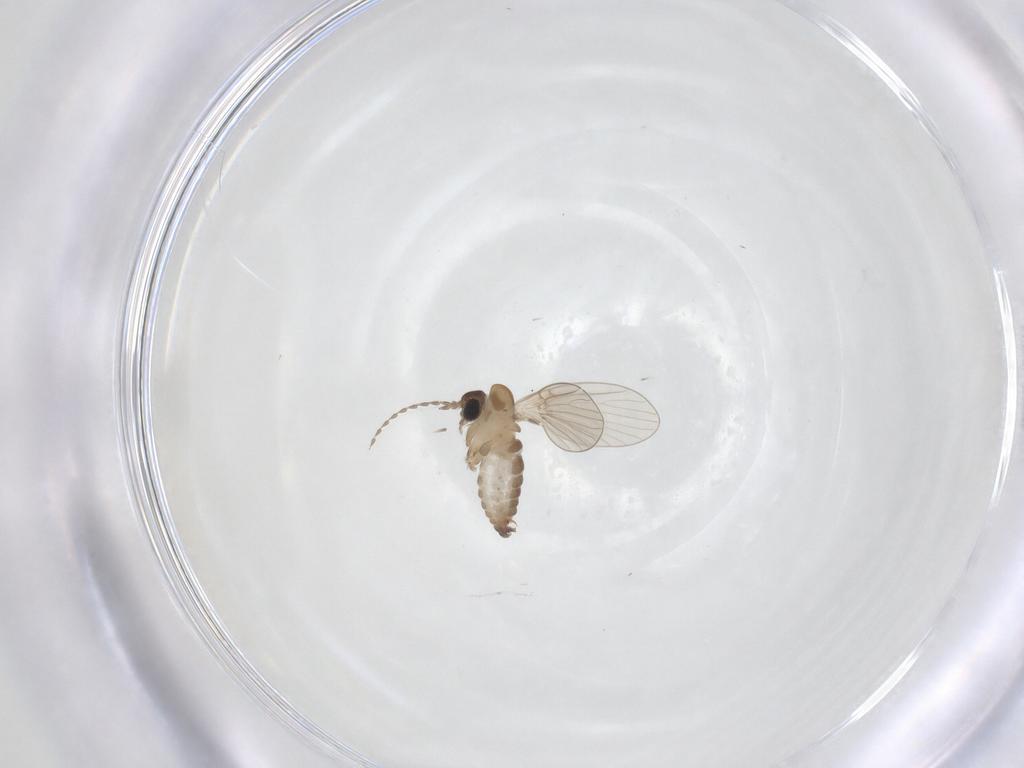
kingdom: Animalia
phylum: Arthropoda
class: Insecta
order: Diptera
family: Psychodidae
